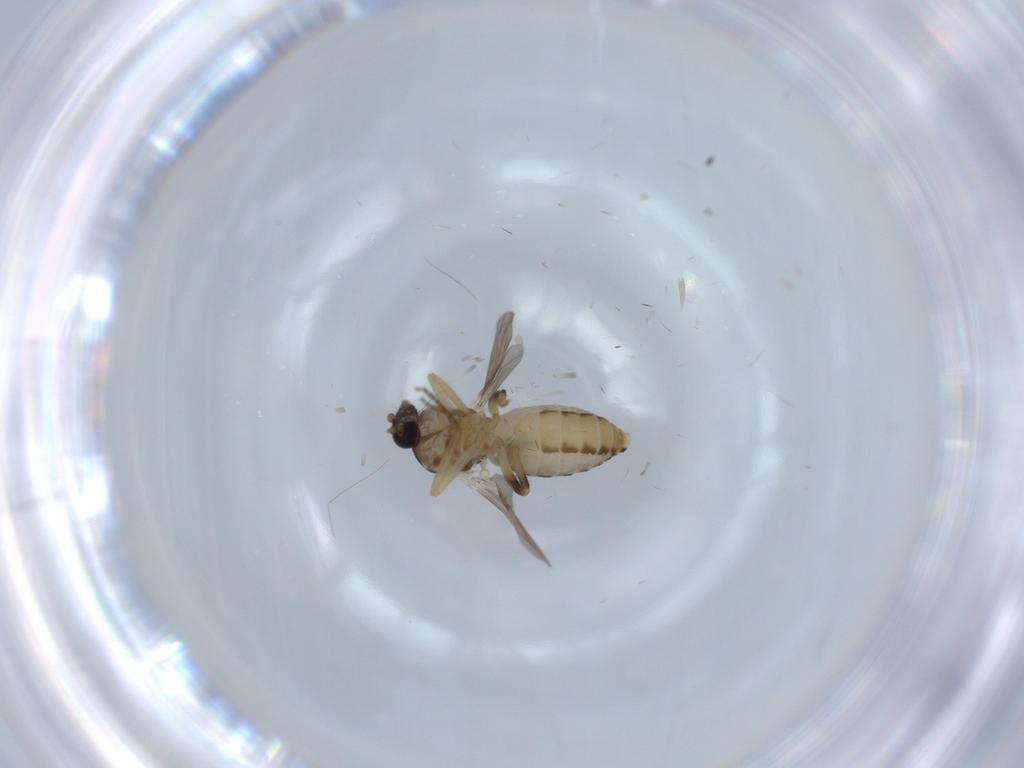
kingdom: Animalia
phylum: Arthropoda
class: Insecta
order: Diptera
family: Ceratopogonidae
